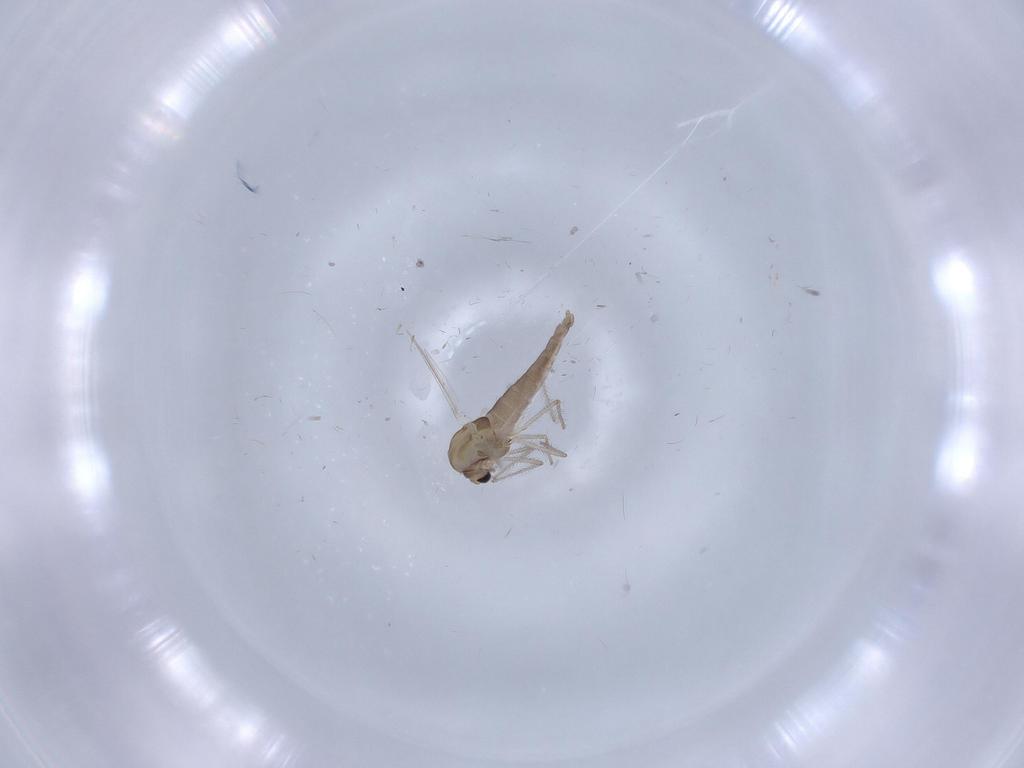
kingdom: Animalia
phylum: Arthropoda
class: Insecta
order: Diptera
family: Chironomidae
